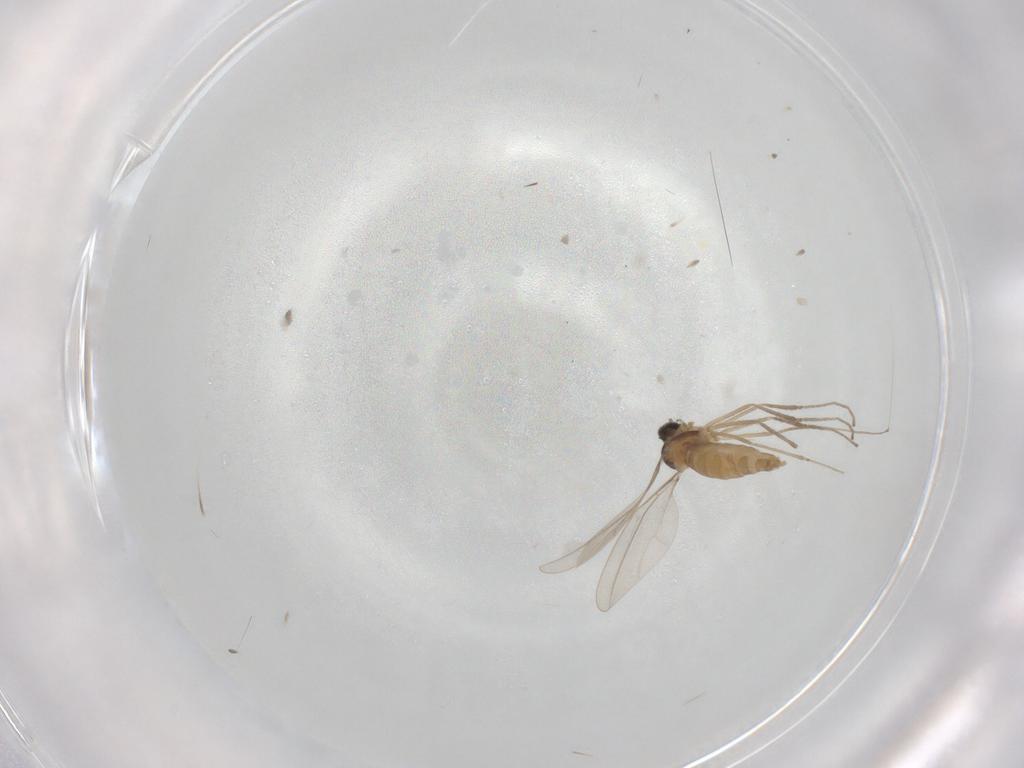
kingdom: Animalia
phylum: Arthropoda
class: Insecta
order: Diptera
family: Cecidomyiidae
